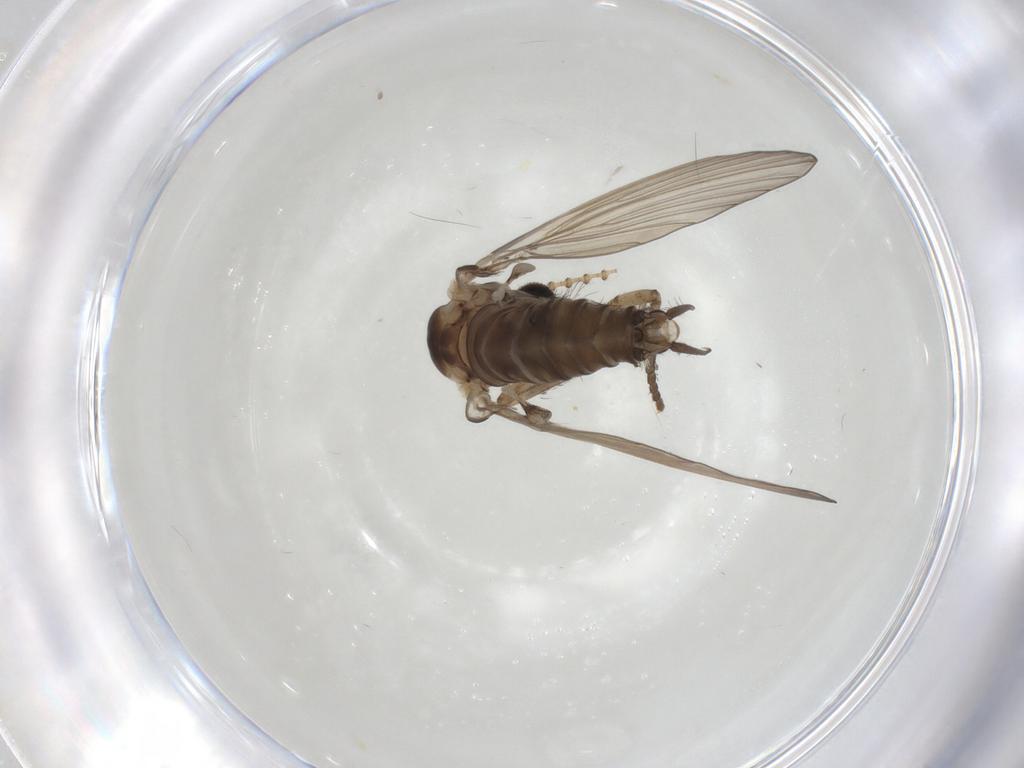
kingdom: Animalia
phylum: Arthropoda
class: Insecta
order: Diptera
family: Psychodidae
